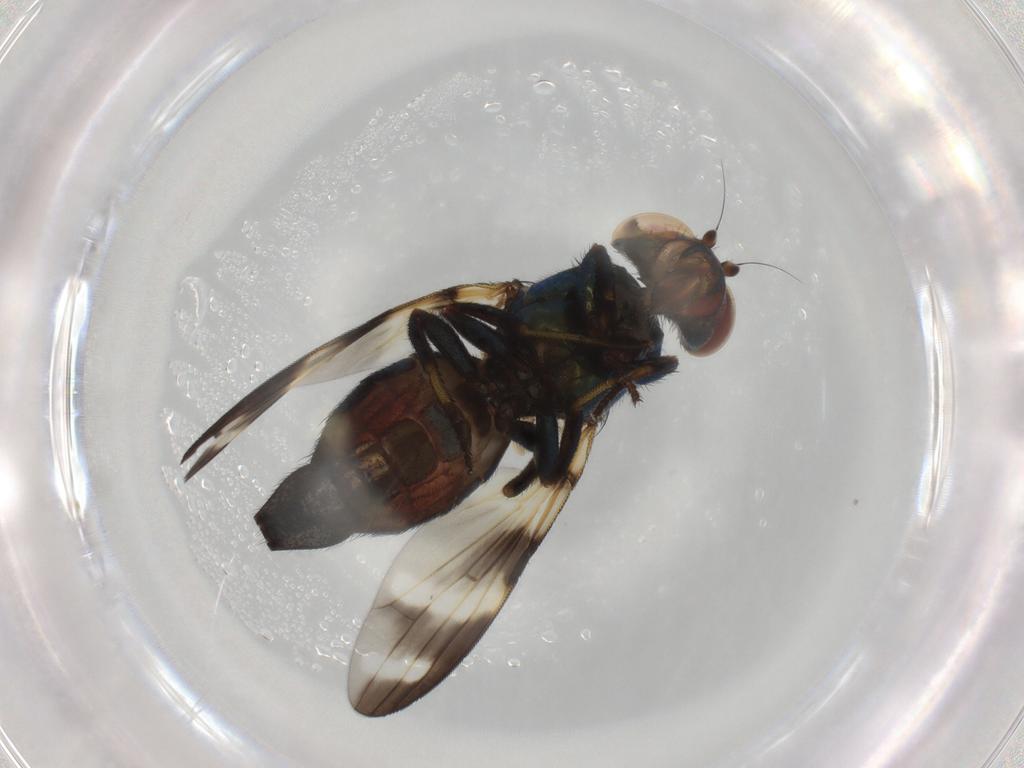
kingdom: Animalia
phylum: Arthropoda
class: Insecta
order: Diptera
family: Ulidiidae
